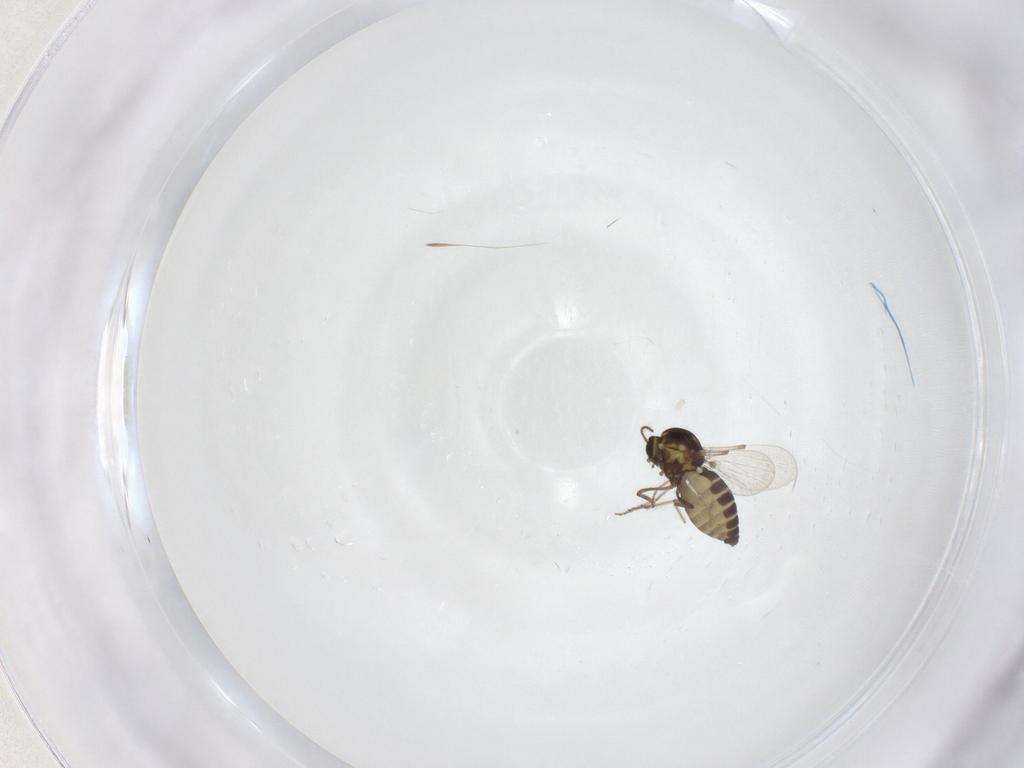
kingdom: Animalia
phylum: Arthropoda
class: Insecta
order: Diptera
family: Ceratopogonidae
